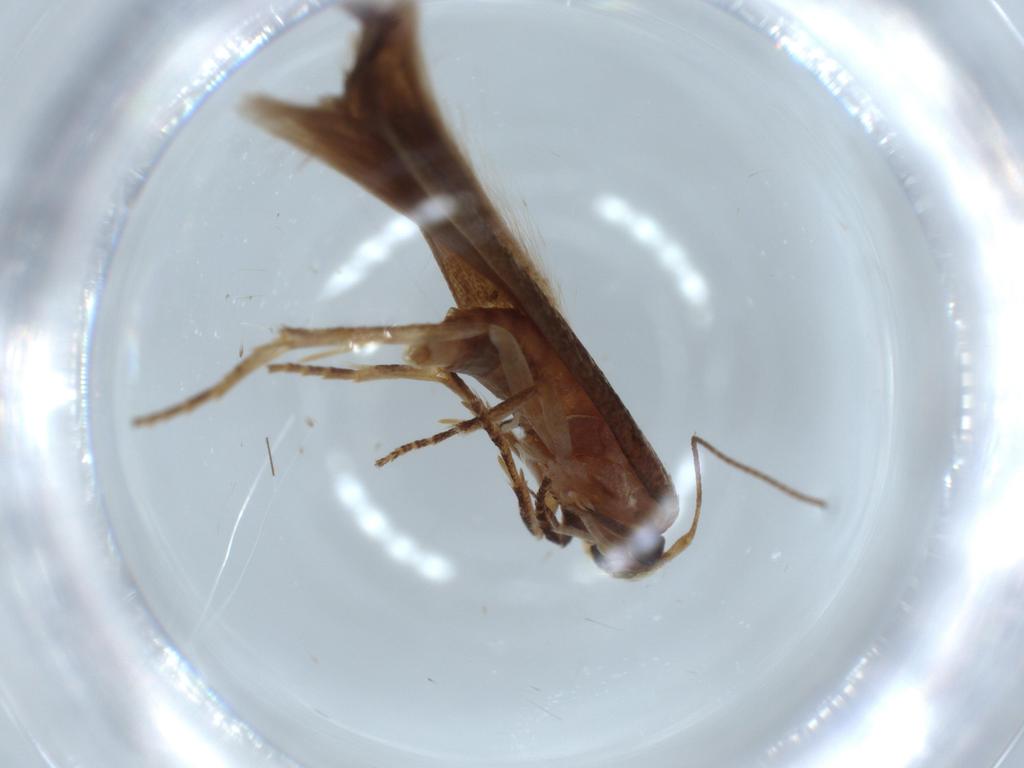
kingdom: Animalia
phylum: Arthropoda
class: Insecta
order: Lepidoptera
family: Stathmopodidae
